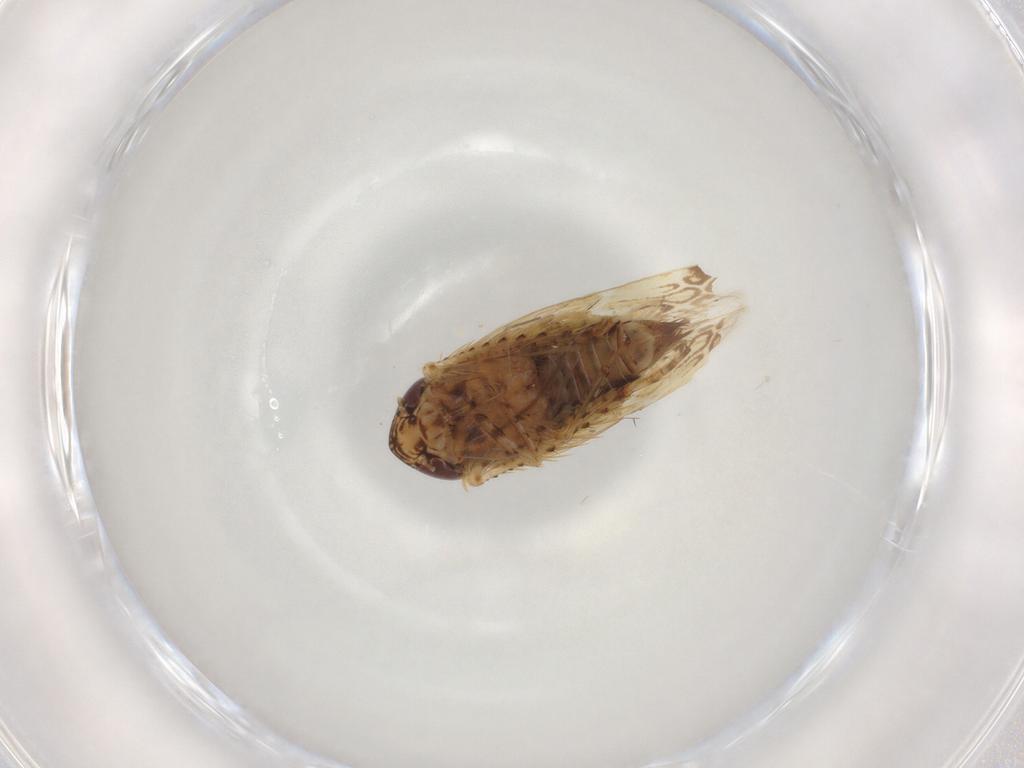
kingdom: Animalia
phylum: Arthropoda
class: Insecta
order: Hemiptera
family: Cicadellidae
